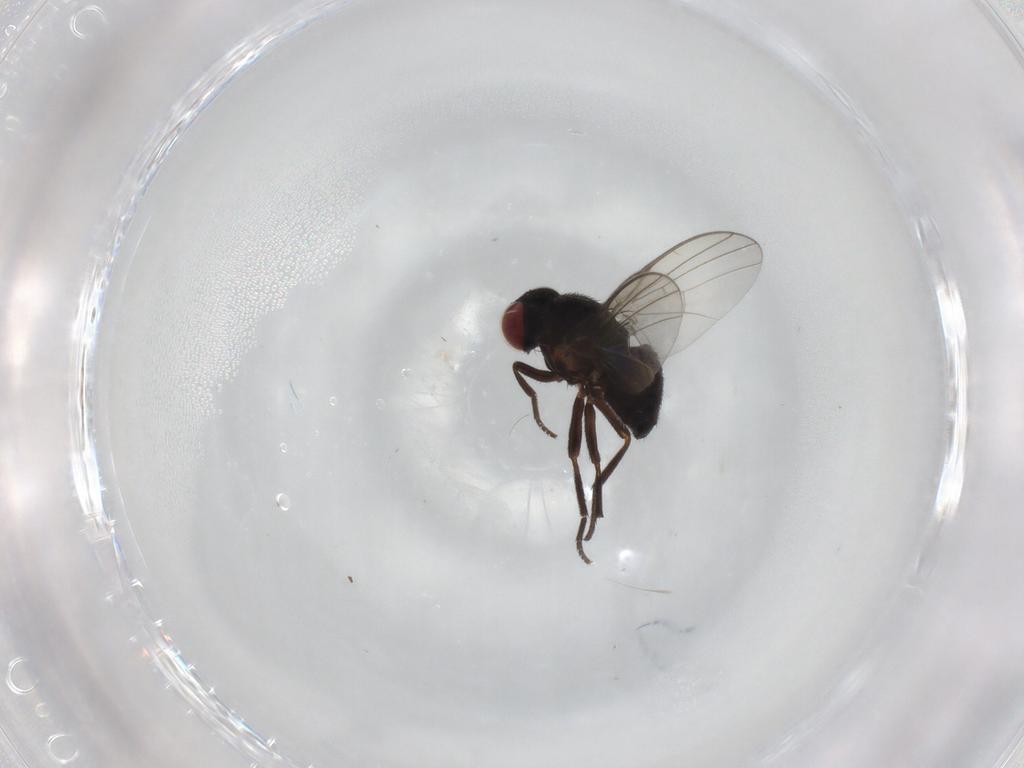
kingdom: Animalia
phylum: Arthropoda
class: Insecta
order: Diptera
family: Agromyzidae
